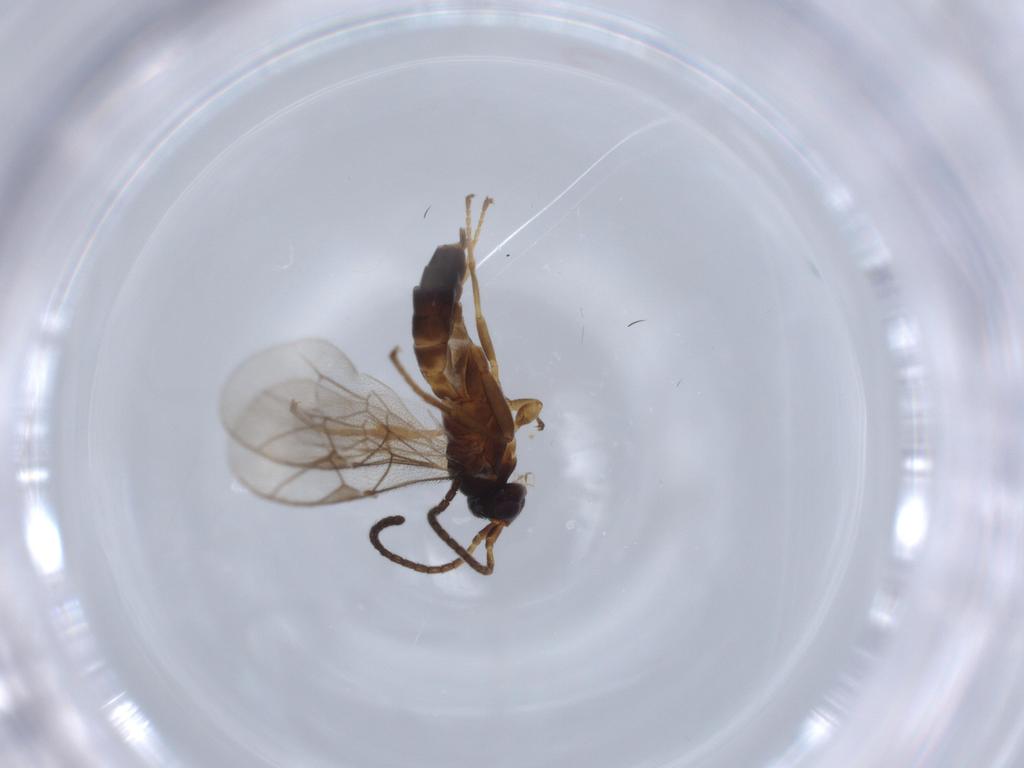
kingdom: Animalia
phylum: Arthropoda
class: Insecta
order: Hymenoptera
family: Ichneumonidae
